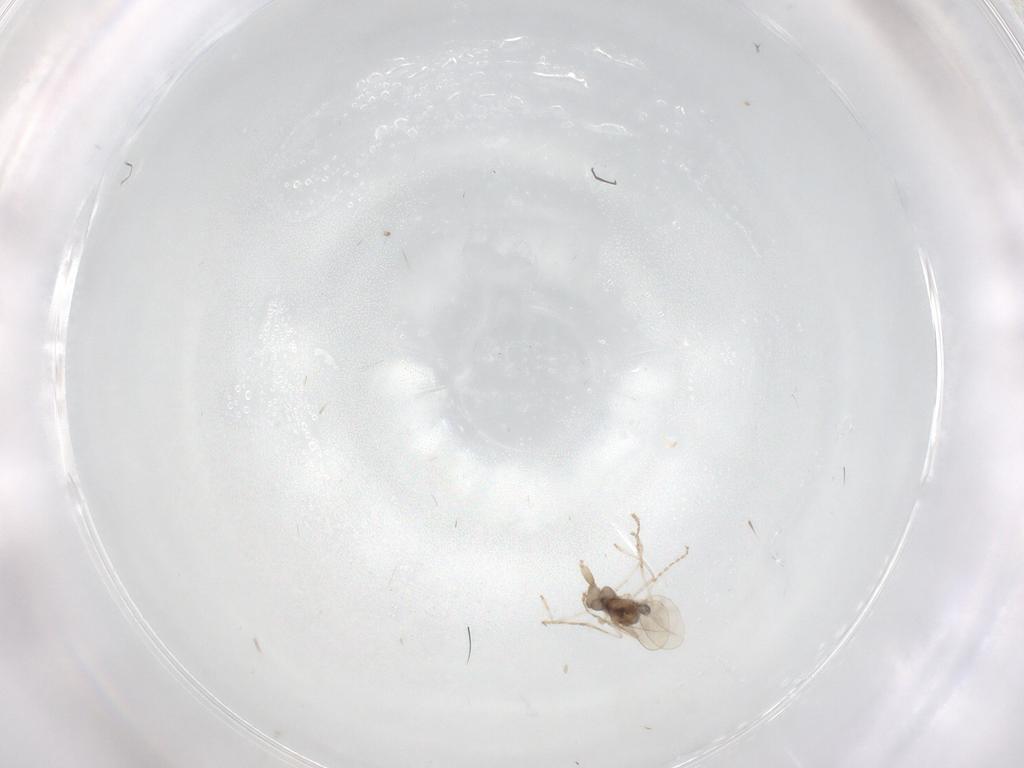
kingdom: Animalia
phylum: Arthropoda
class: Insecta
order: Diptera
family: Cecidomyiidae
